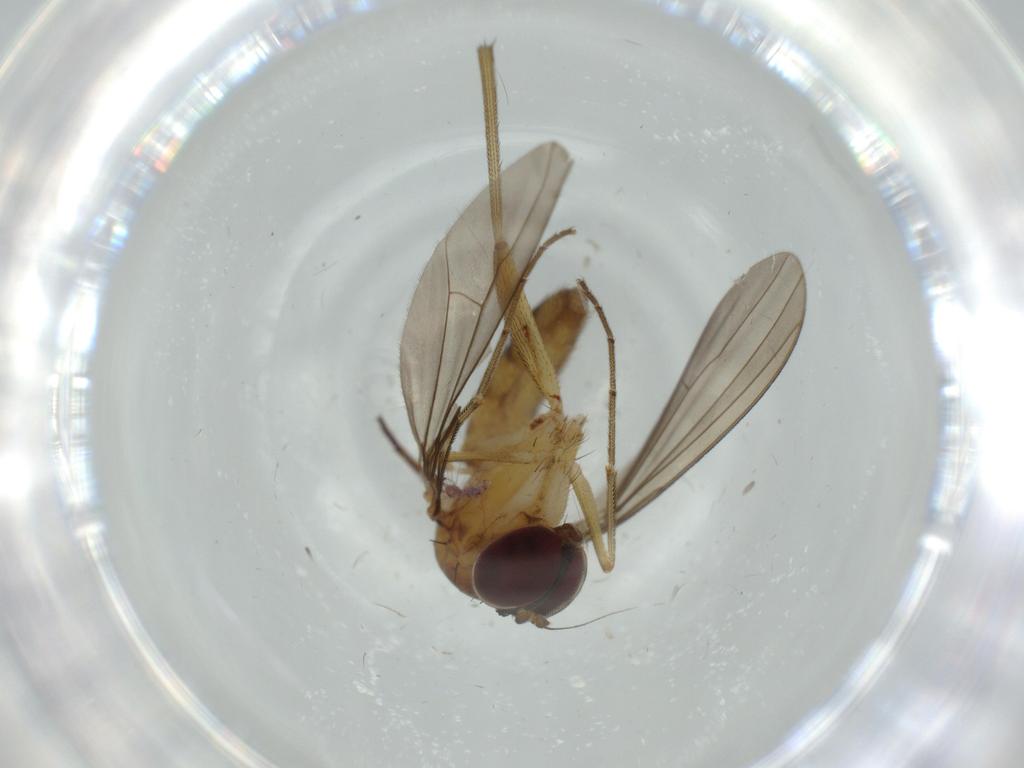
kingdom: Animalia
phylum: Arthropoda
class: Insecta
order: Diptera
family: Dolichopodidae
